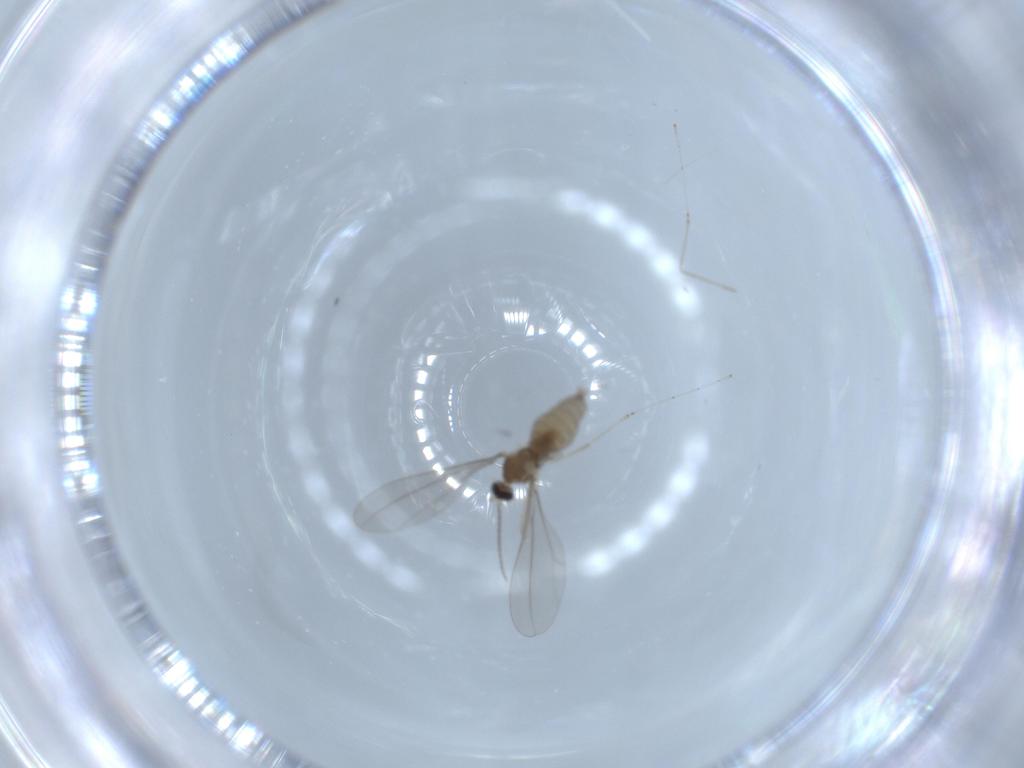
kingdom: Animalia
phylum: Arthropoda
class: Insecta
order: Diptera
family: Cecidomyiidae
